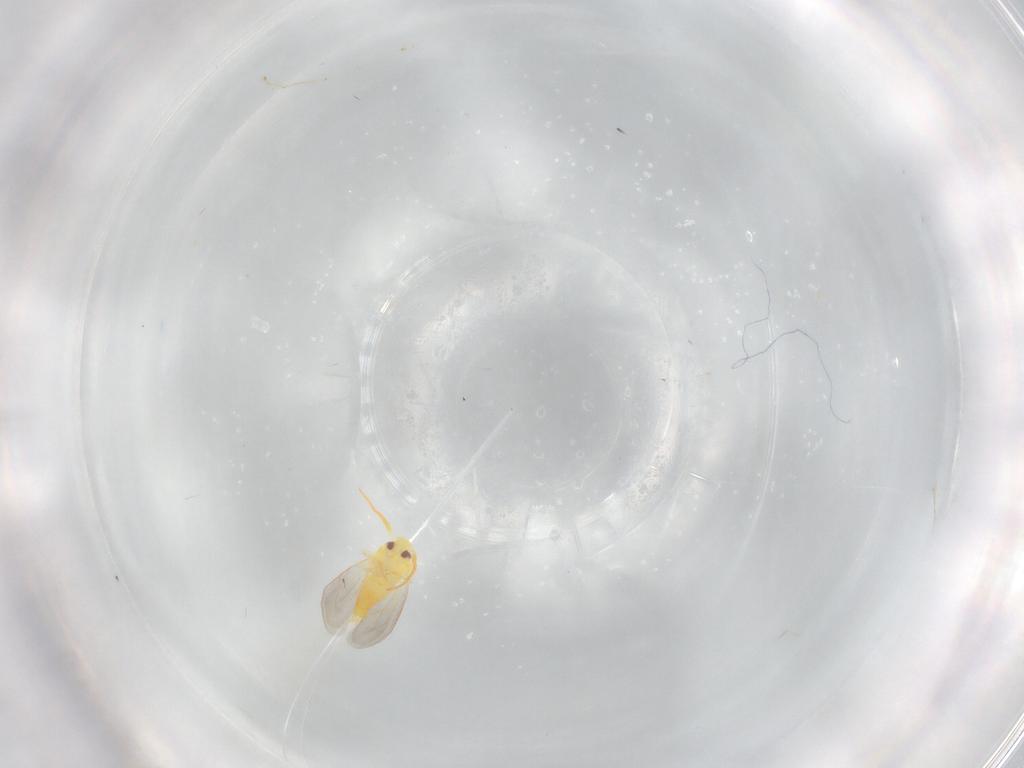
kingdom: Animalia
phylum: Arthropoda
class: Insecta
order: Hemiptera
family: Aleyrodidae
